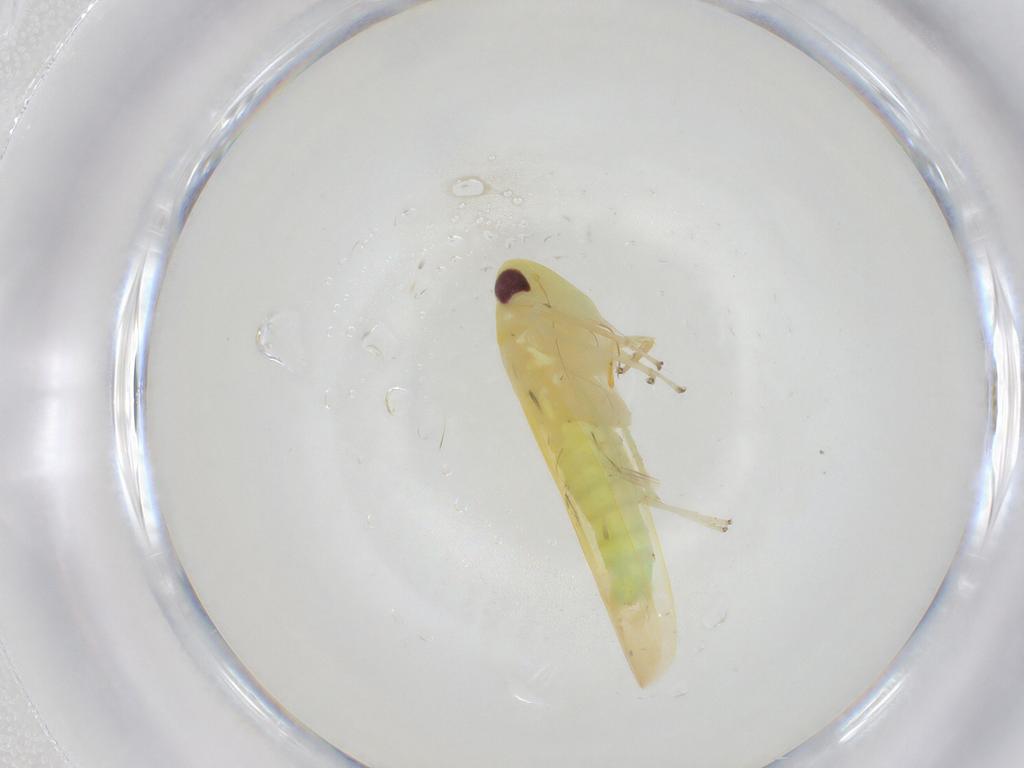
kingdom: Animalia
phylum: Arthropoda
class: Insecta
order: Hemiptera
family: Cicadellidae
